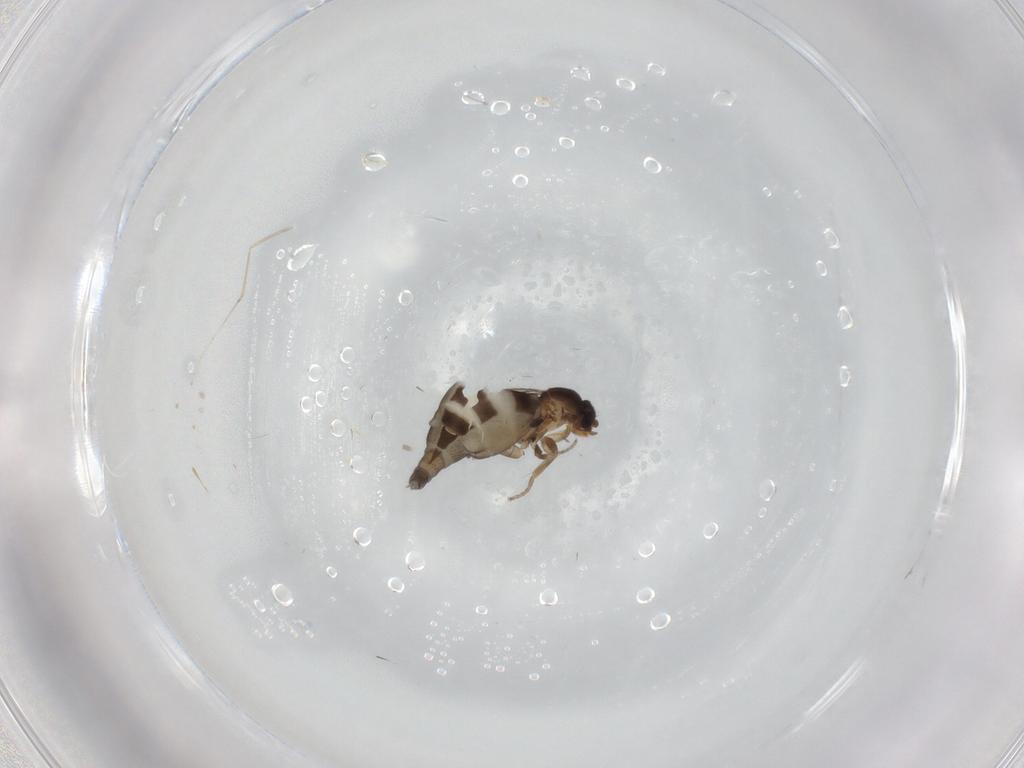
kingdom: Animalia
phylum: Arthropoda
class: Insecta
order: Diptera
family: Phoridae
